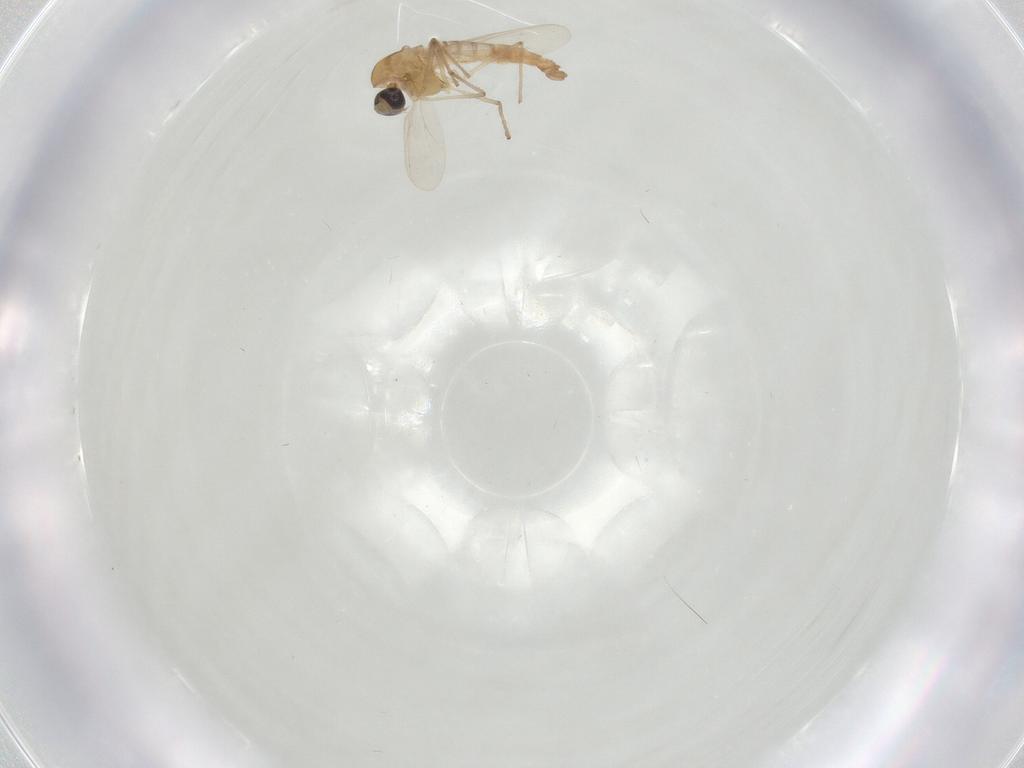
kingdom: Animalia
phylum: Arthropoda
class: Insecta
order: Diptera
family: Chironomidae
